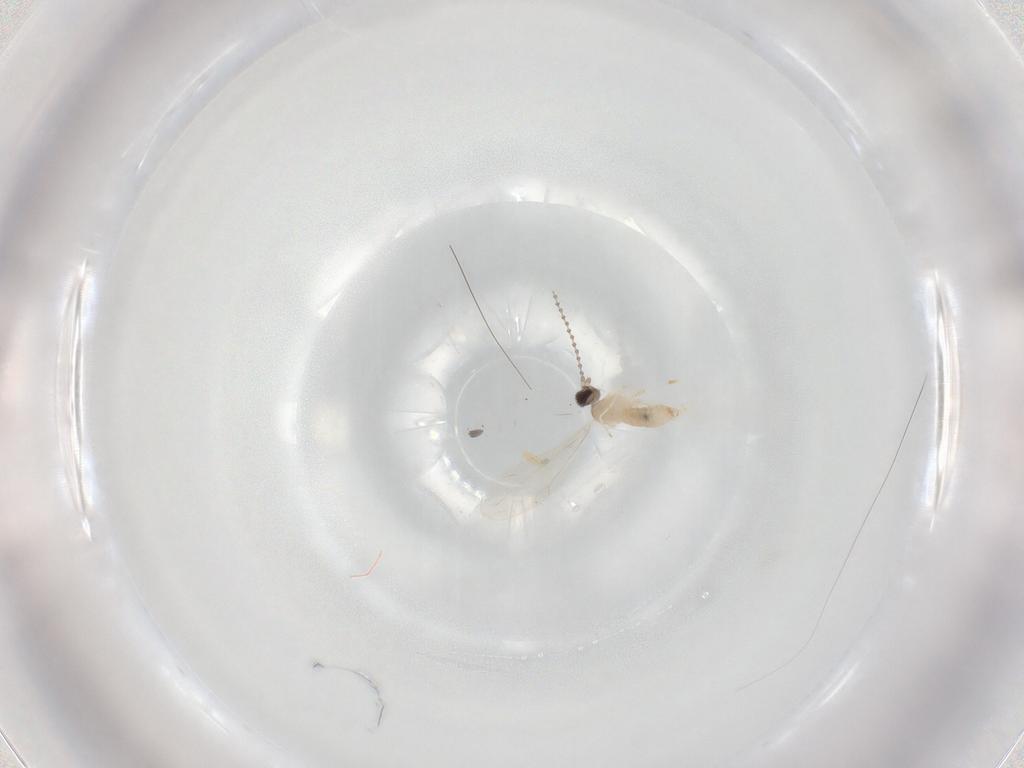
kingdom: Animalia
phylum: Arthropoda
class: Insecta
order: Diptera
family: Cecidomyiidae
